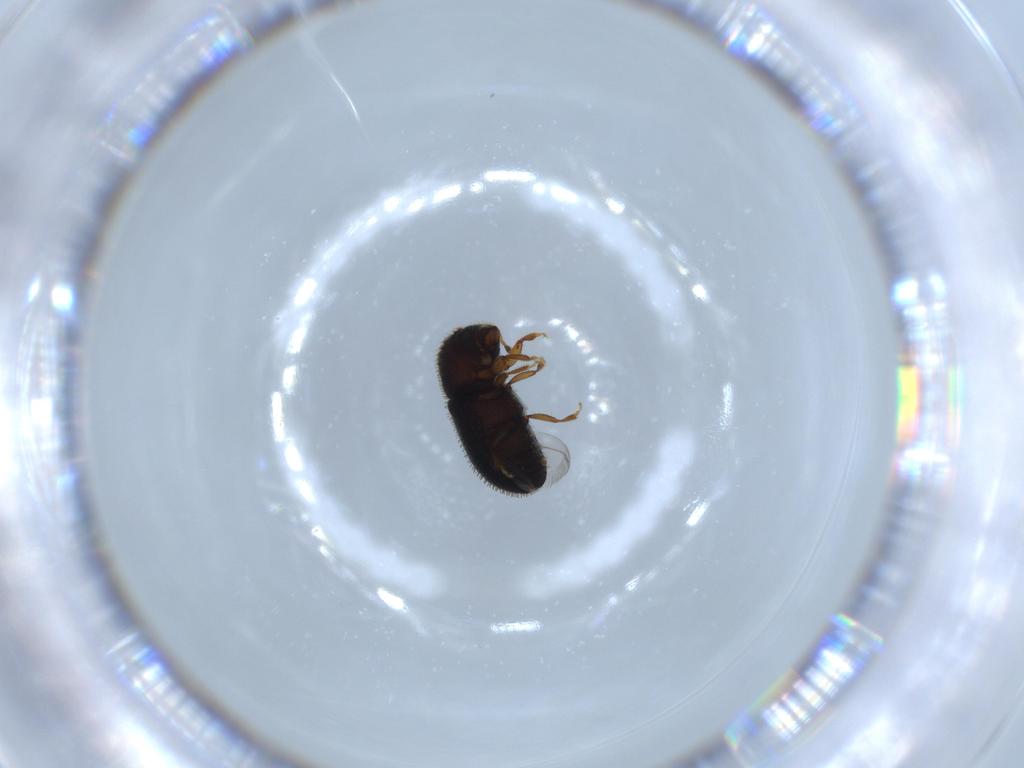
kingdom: Animalia
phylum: Arthropoda
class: Insecta
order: Coleoptera
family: Curculionidae
